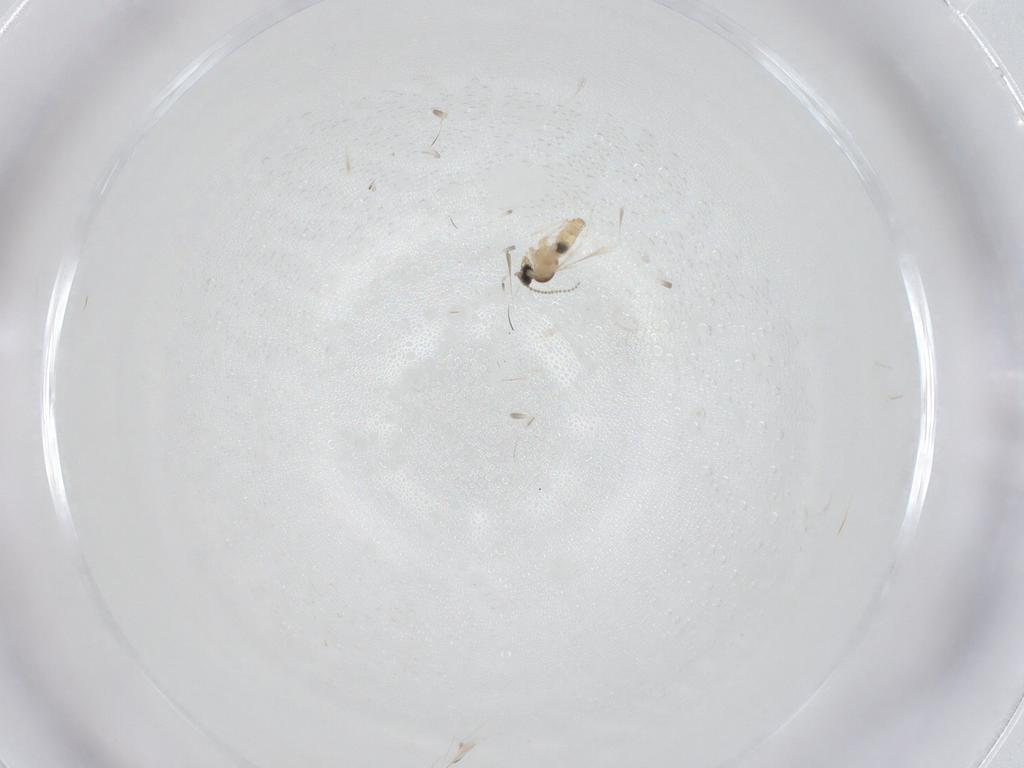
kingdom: Animalia
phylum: Arthropoda
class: Insecta
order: Diptera
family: Cecidomyiidae
